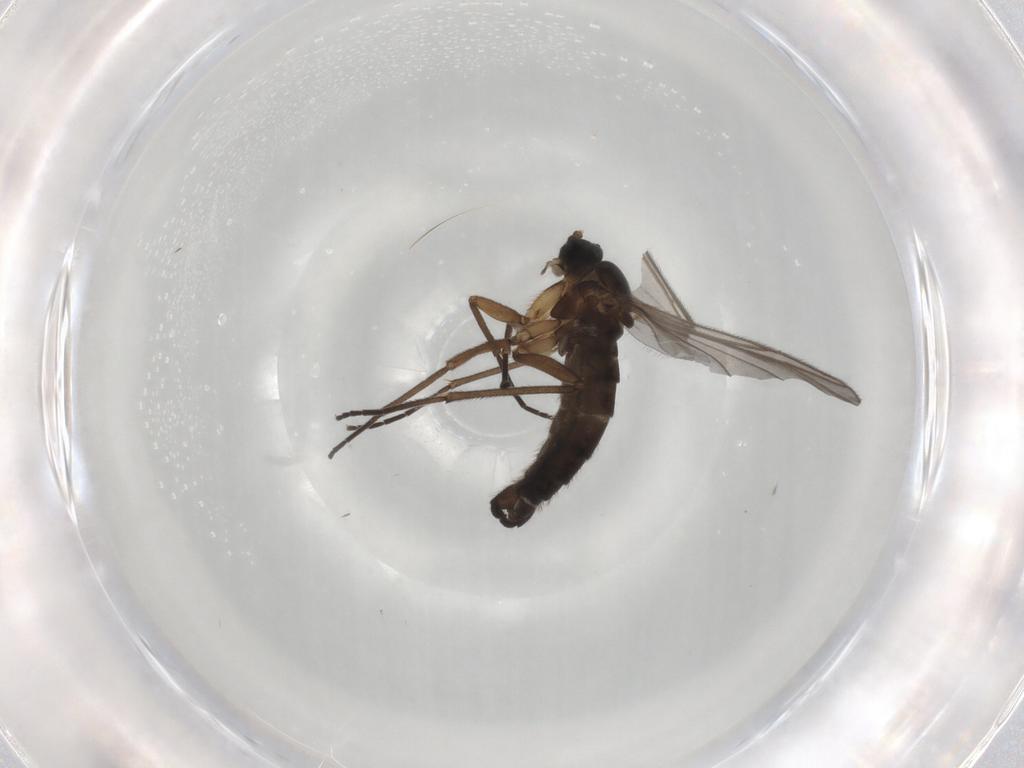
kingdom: Animalia
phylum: Arthropoda
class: Insecta
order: Diptera
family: Sciaridae
